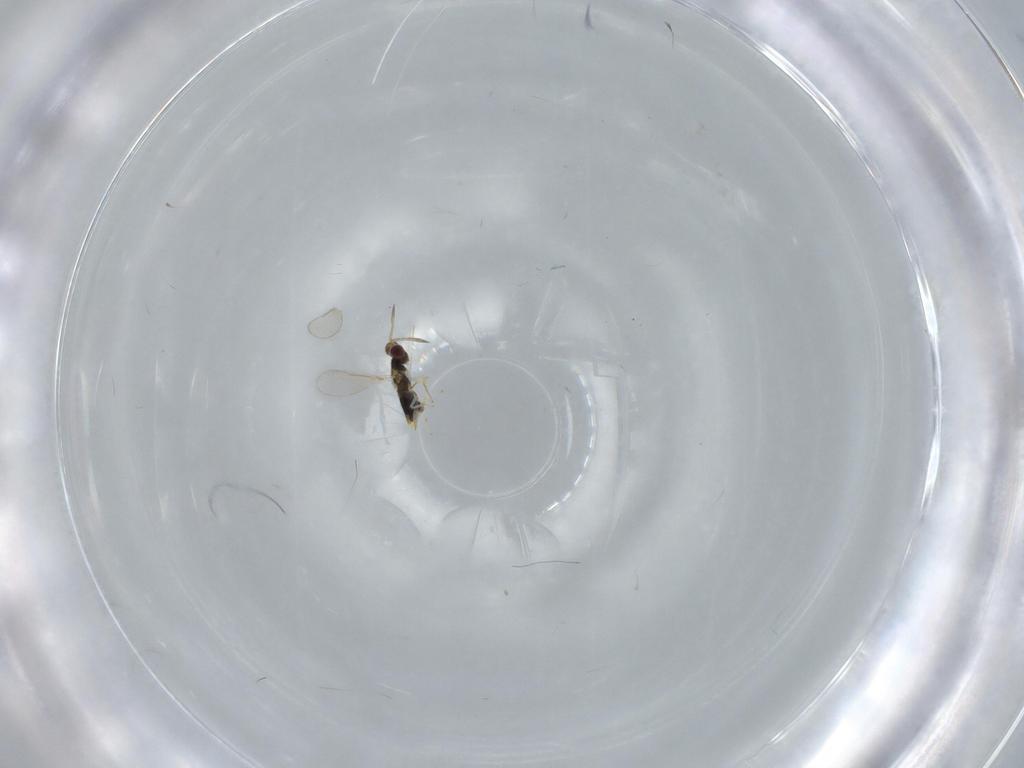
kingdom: Animalia
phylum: Arthropoda
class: Insecta
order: Hymenoptera
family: Aphelinidae
